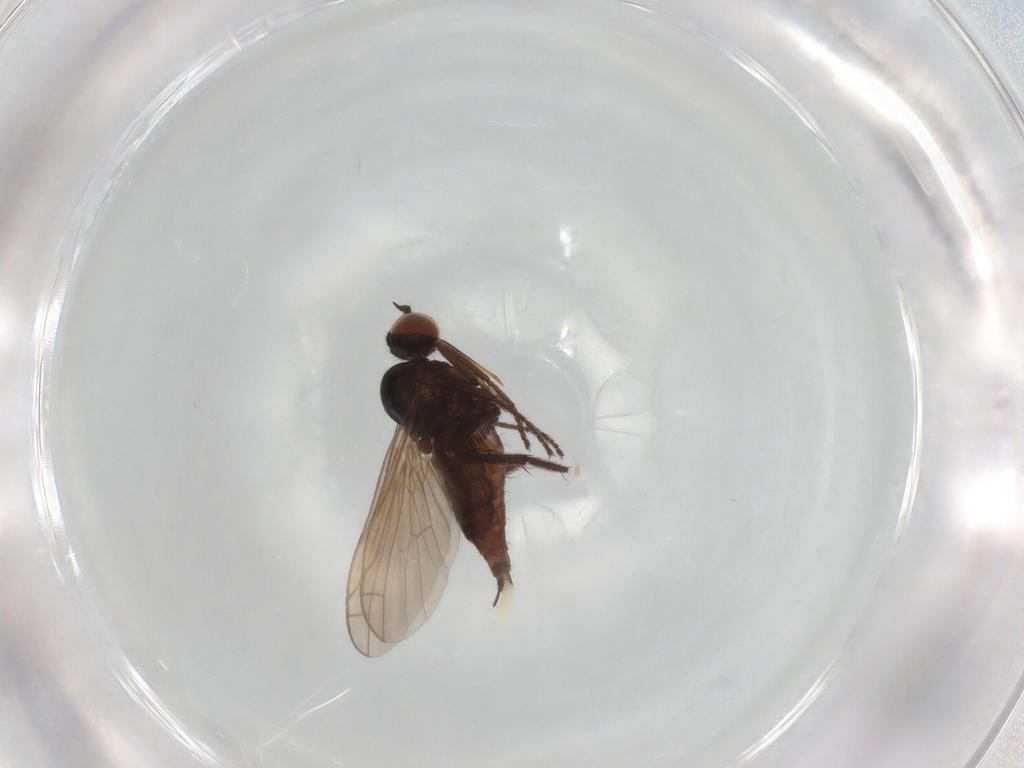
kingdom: Animalia
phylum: Arthropoda
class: Insecta
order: Diptera
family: Empididae
